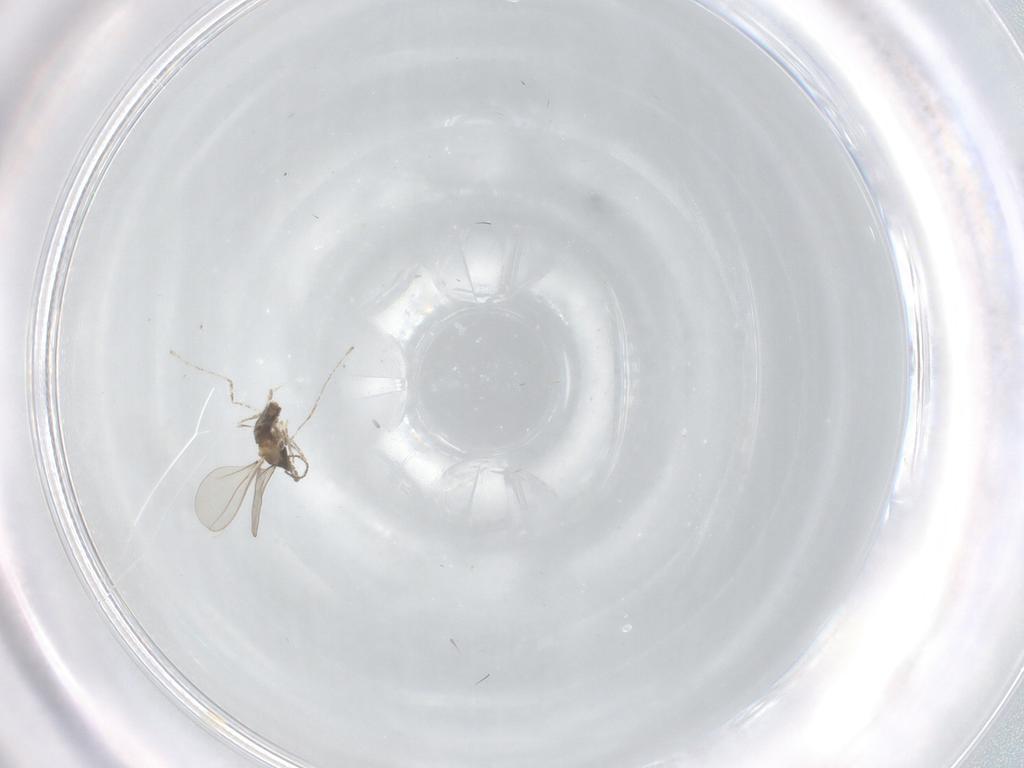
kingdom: Animalia
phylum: Arthropoda
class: Insecta
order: Diptera
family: Cecidomyiidae
